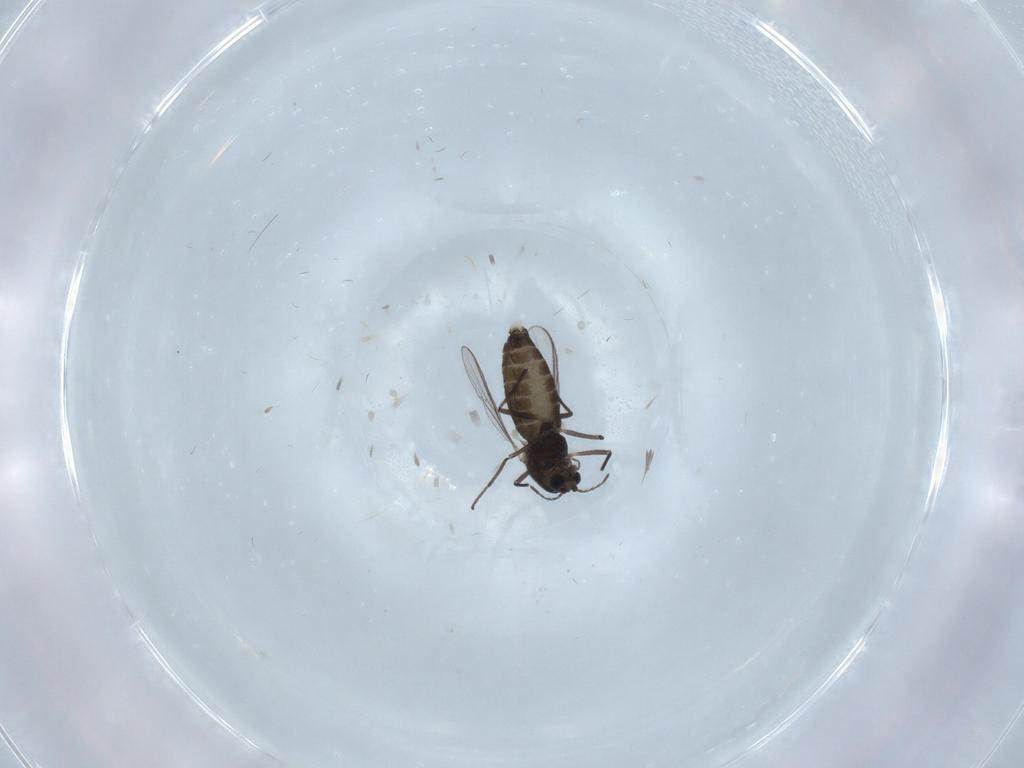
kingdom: Animalia
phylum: Arthropoda
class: Insecta
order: Diptera
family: Chironomidae
